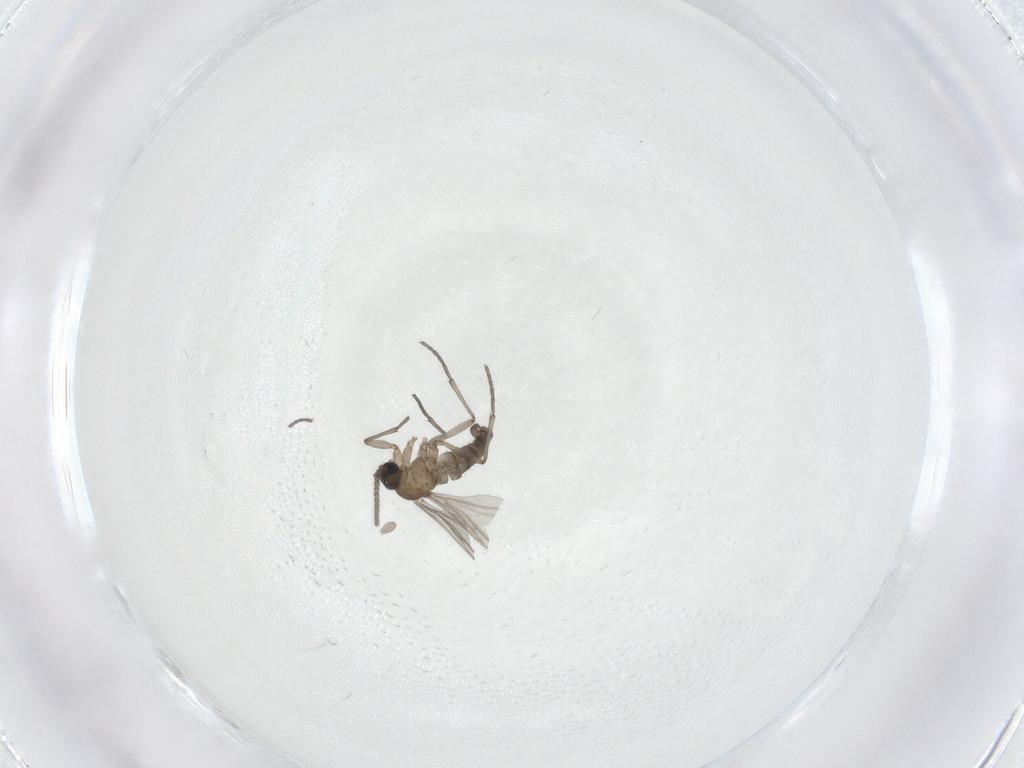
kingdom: Animalia
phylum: Arthropoda
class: Insecta
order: Diptera
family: Sciaridae
